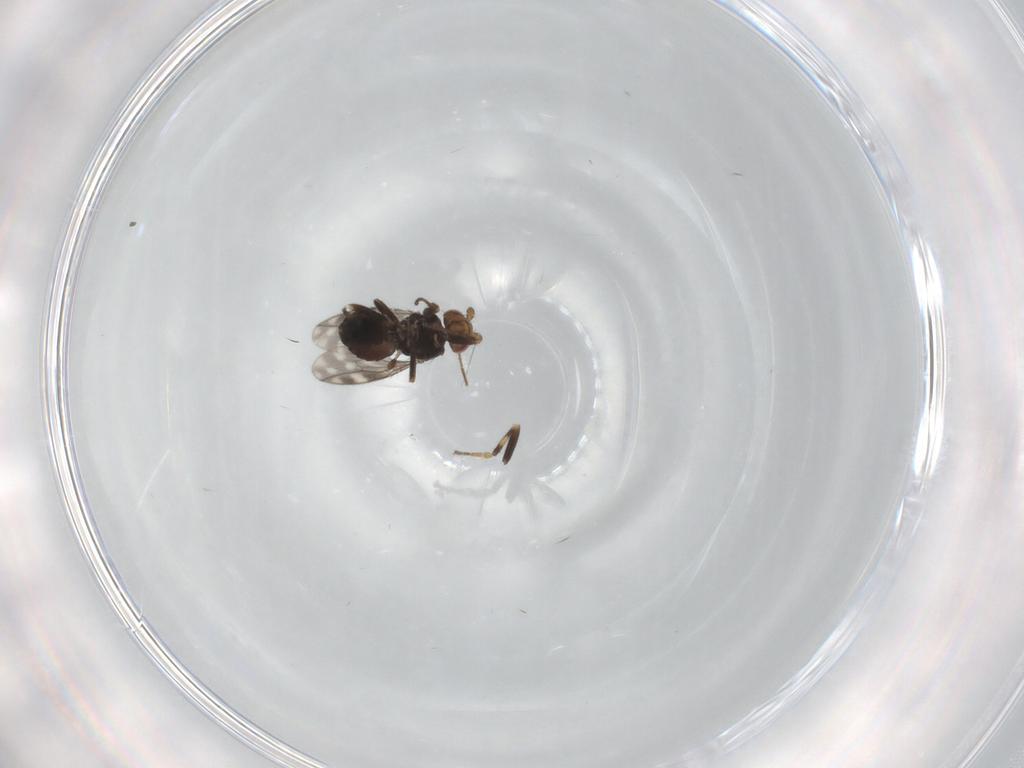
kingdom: Animalia
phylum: Arthropoda
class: Insecta
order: Diptera
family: Sphaeroceridae
